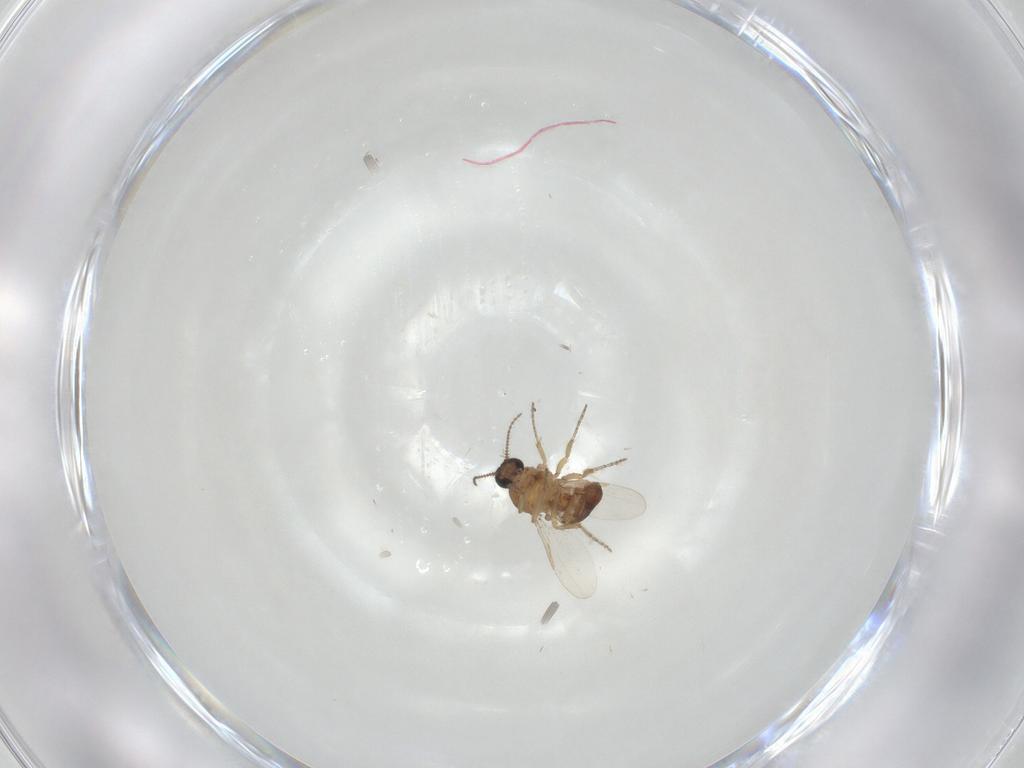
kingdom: Animalia
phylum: Arthropoda
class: Insecta
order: Diptera
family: Ceratopogonidae
